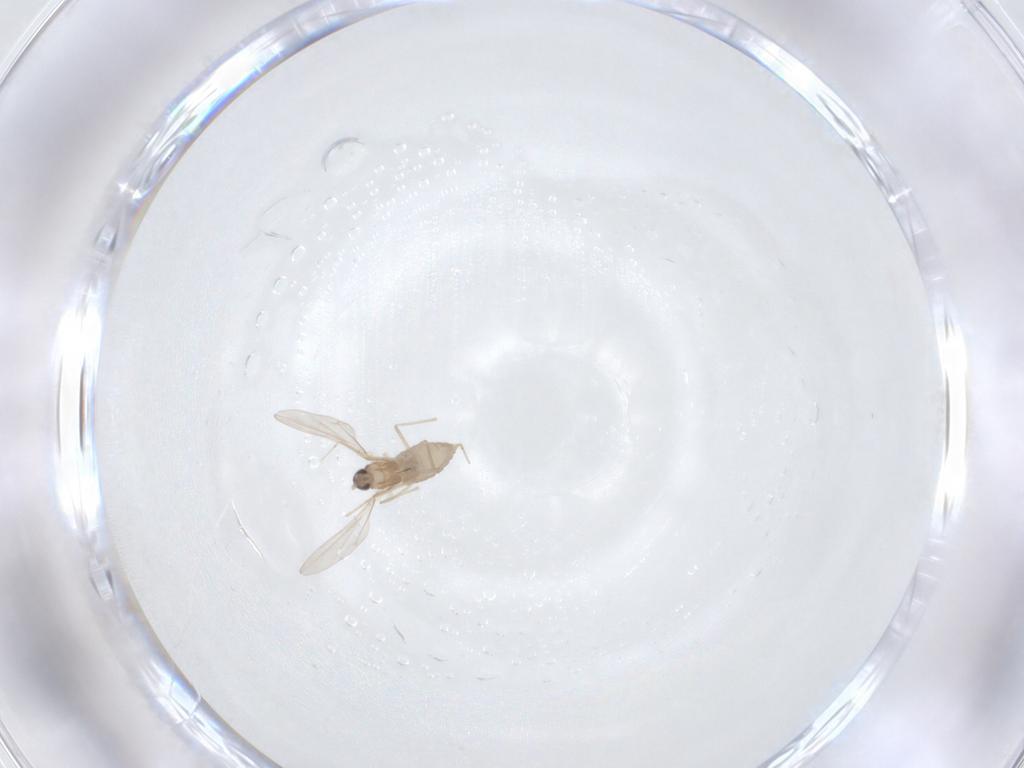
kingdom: Animalia
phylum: Arthropoda
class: Insecta
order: Diptera
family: Cecidomyiidae
